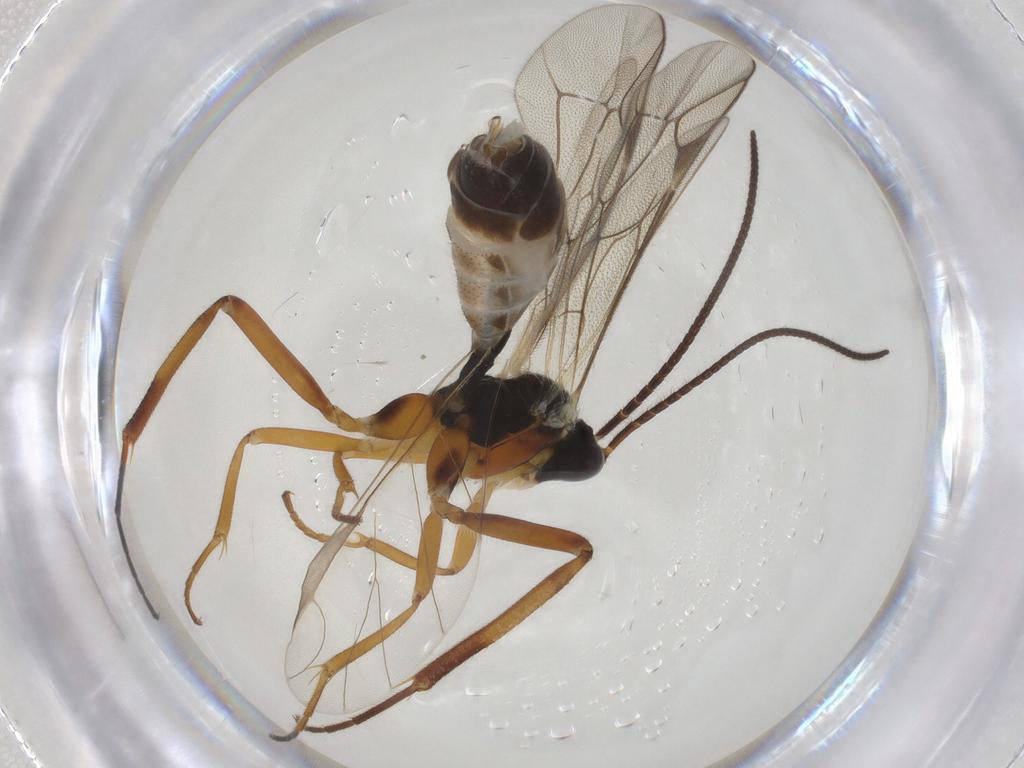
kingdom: Animalia
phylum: Arthropoda
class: Insecta
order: Hymenoptera
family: Ichneumonidae
